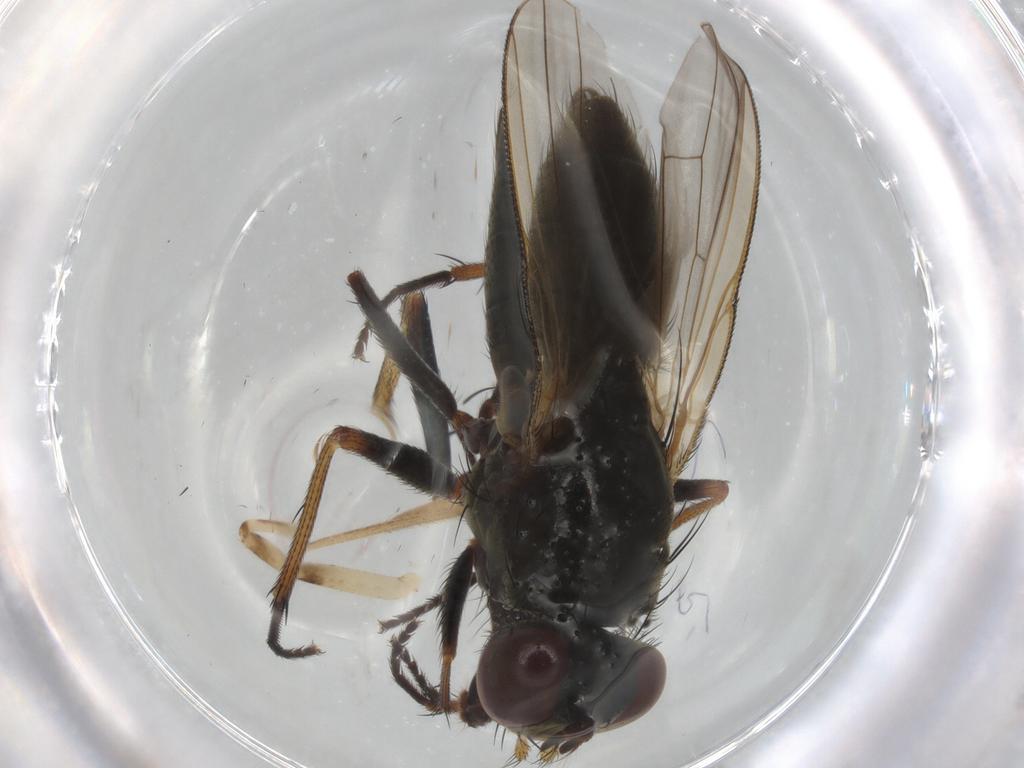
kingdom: Animalia
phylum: Arthropoda
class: Insecta
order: Diptera
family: Muscidae
